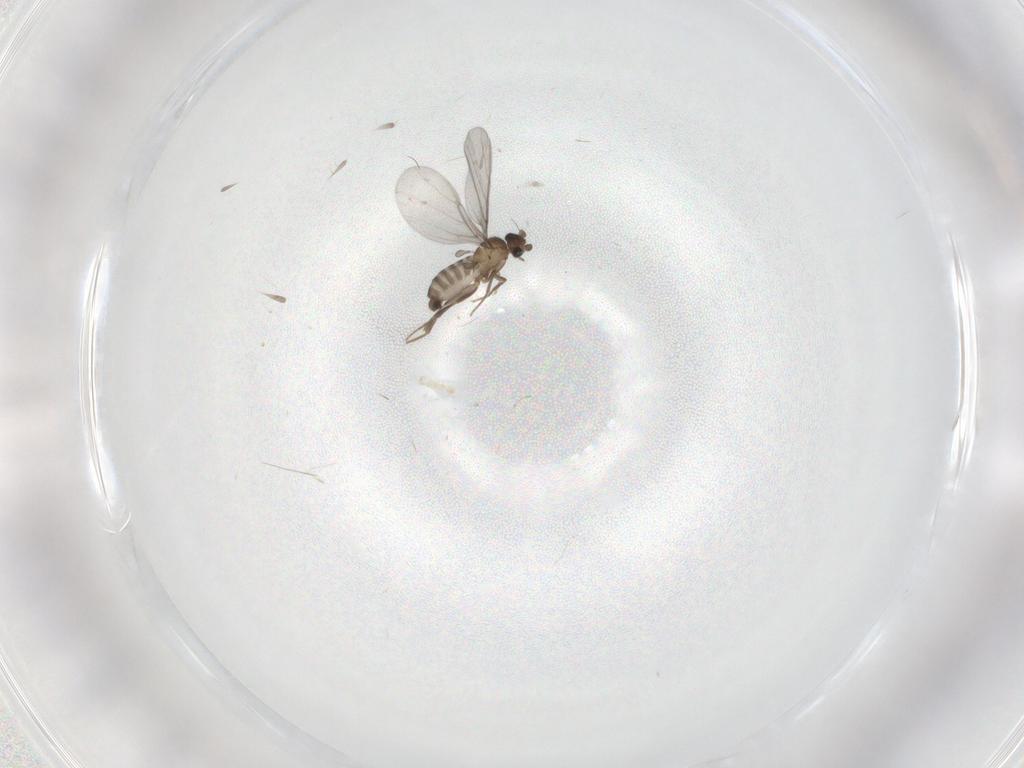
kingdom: Animalia
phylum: Arthropoda
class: Insecta
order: Diptera
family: Phoridae
